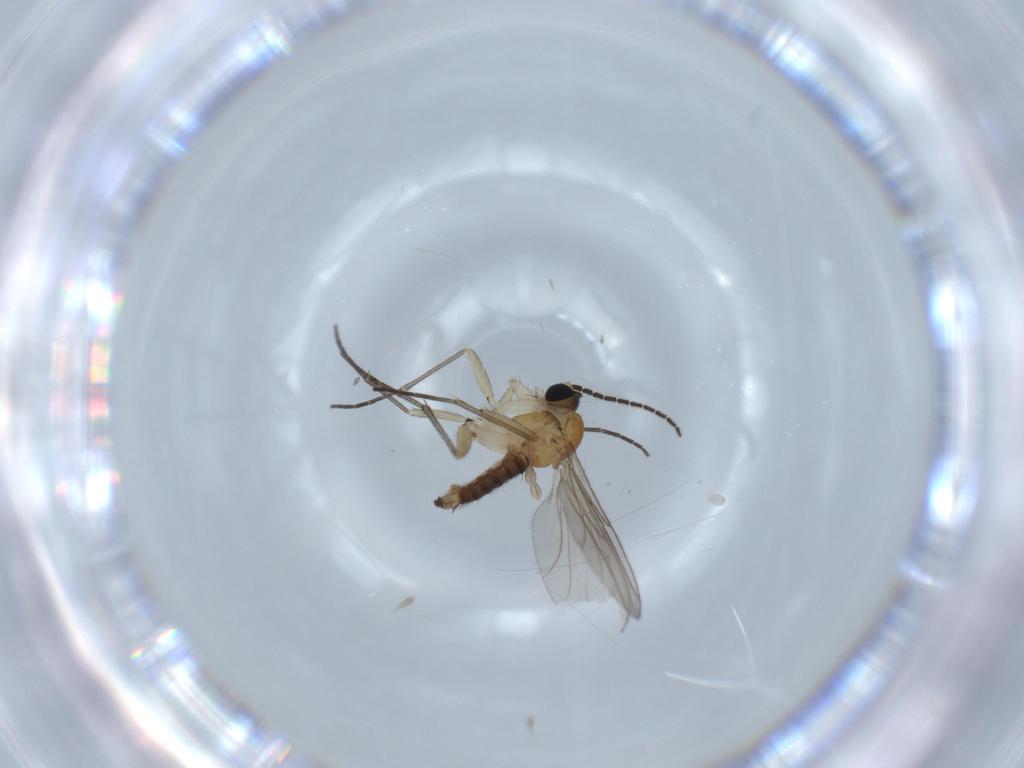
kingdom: Animalia
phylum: Arthropoda
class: Insecta
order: Diptera
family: Sciaridae
